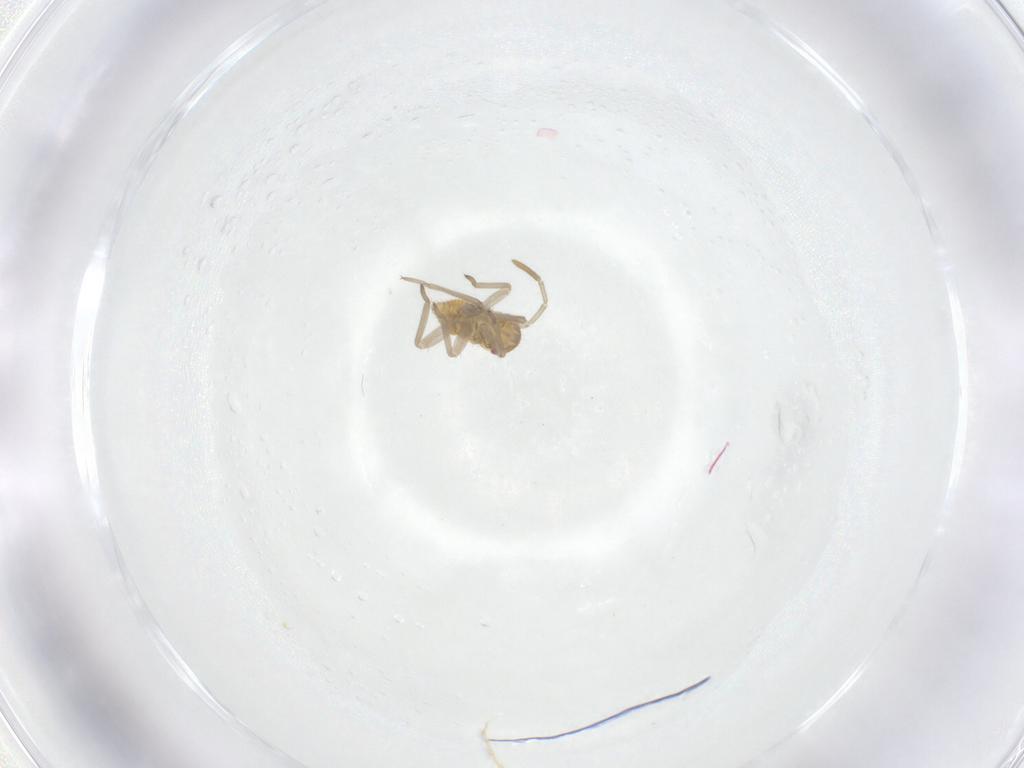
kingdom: Animalia
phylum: Arthropoda
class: Insecta
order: Hemiptera
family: Miridae
